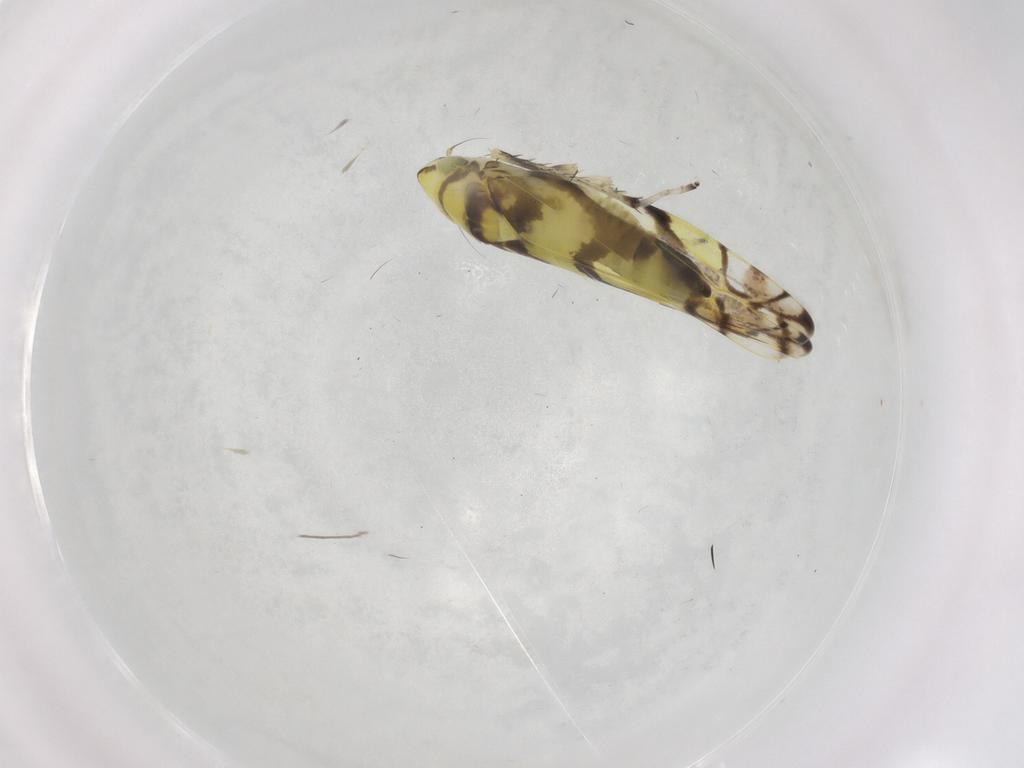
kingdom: Animalia
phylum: Arthropoda
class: Insecta
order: Hemiptera
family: Cicadellidae
